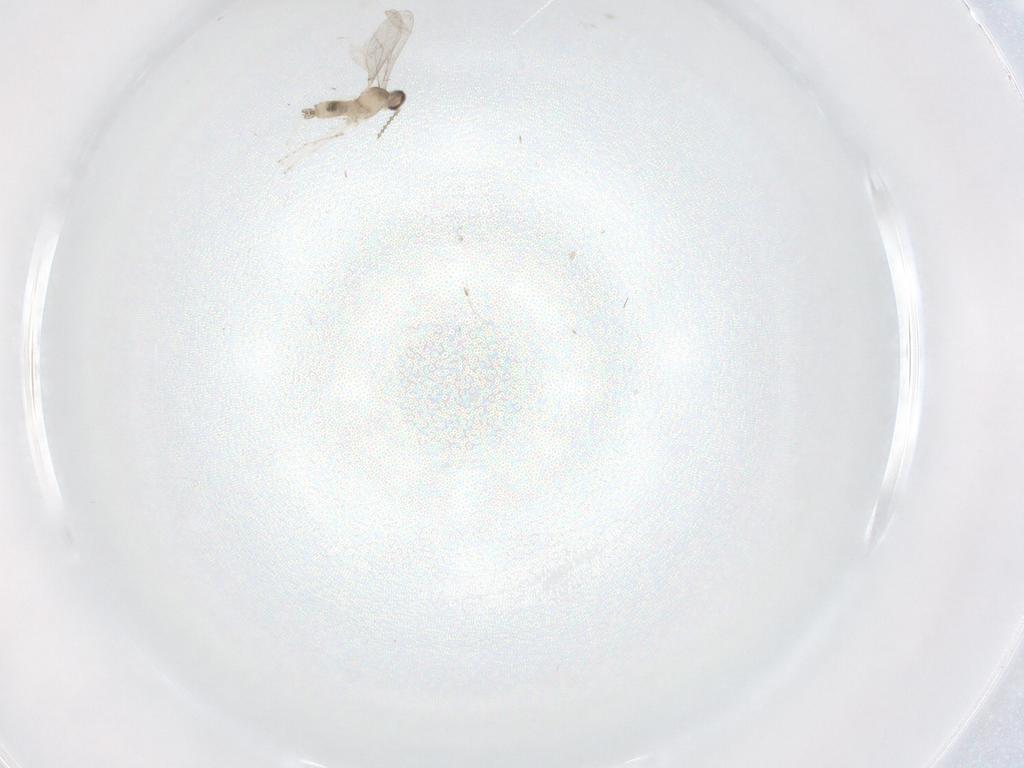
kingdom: Animalia
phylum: Arthropoda
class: Insecta
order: Diptera
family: Cecidomyiidae
